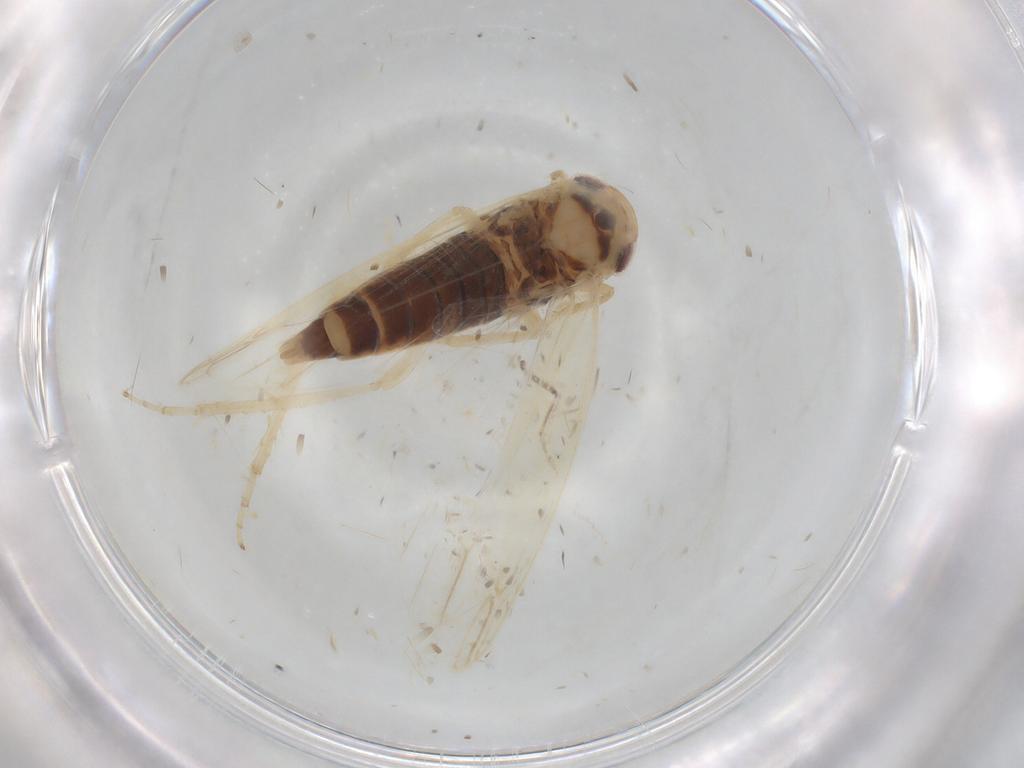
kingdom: Animalia
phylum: Arthropoda
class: Insecta
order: Hemiptera
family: Cicadellidae
